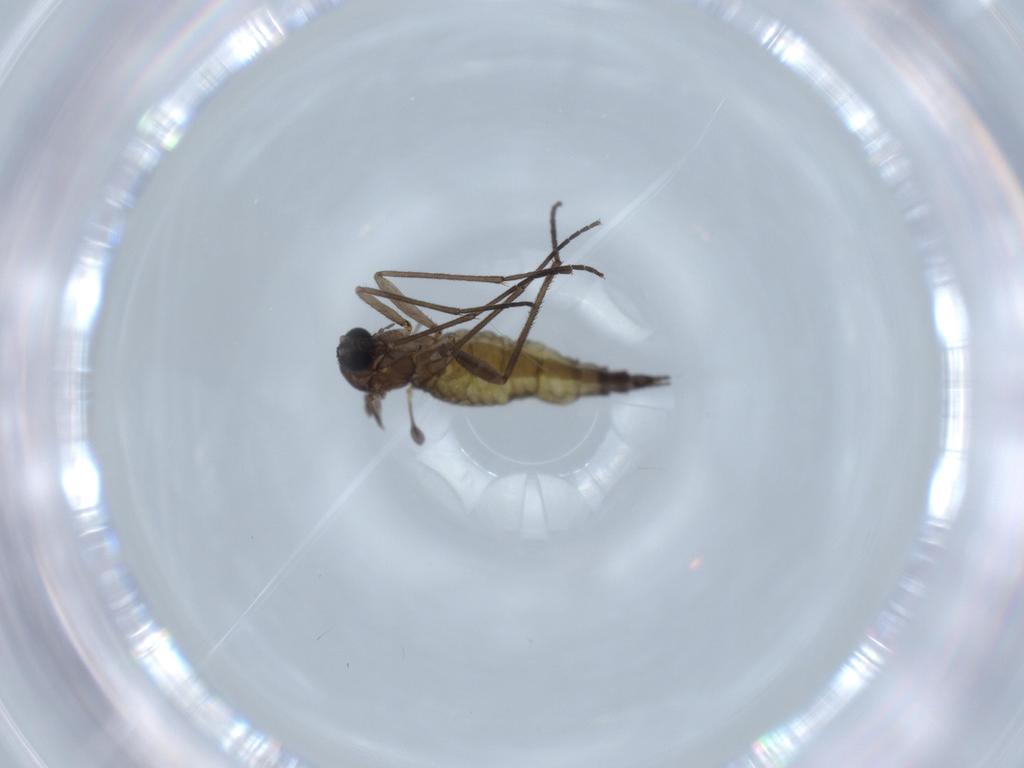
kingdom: Animalia
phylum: Arthropoda
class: Insecta
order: Diptera
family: Sciaridae
